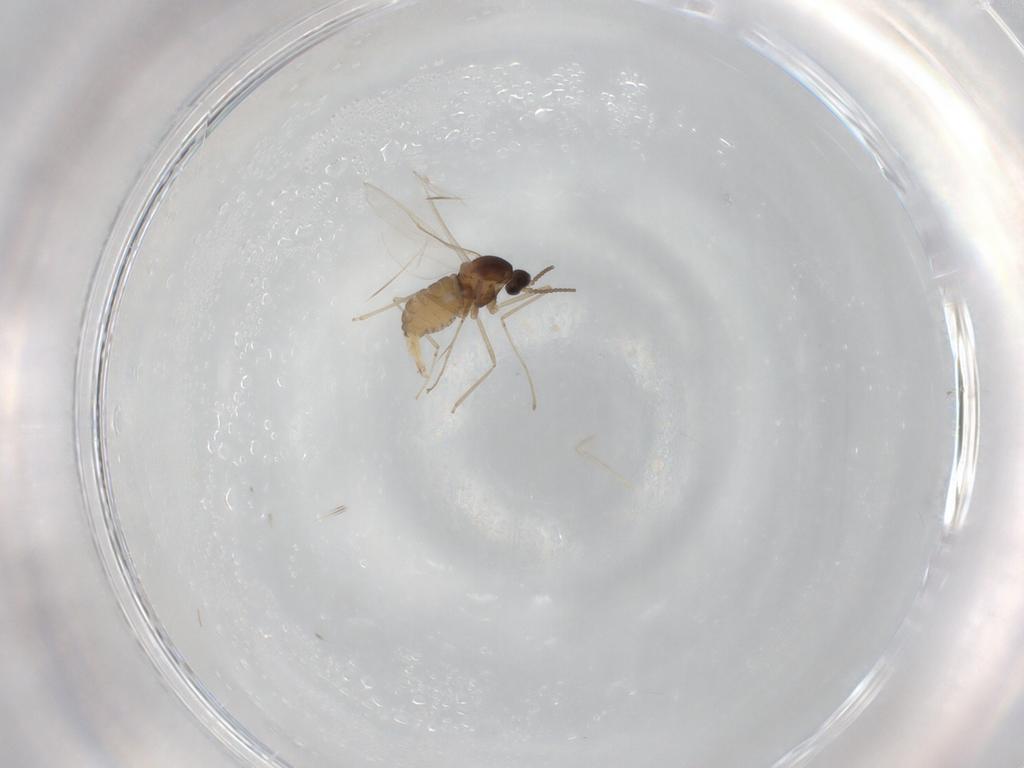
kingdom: Animalia
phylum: Arthropoda
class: Insecta
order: Diptera
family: Cecidomyiidae
